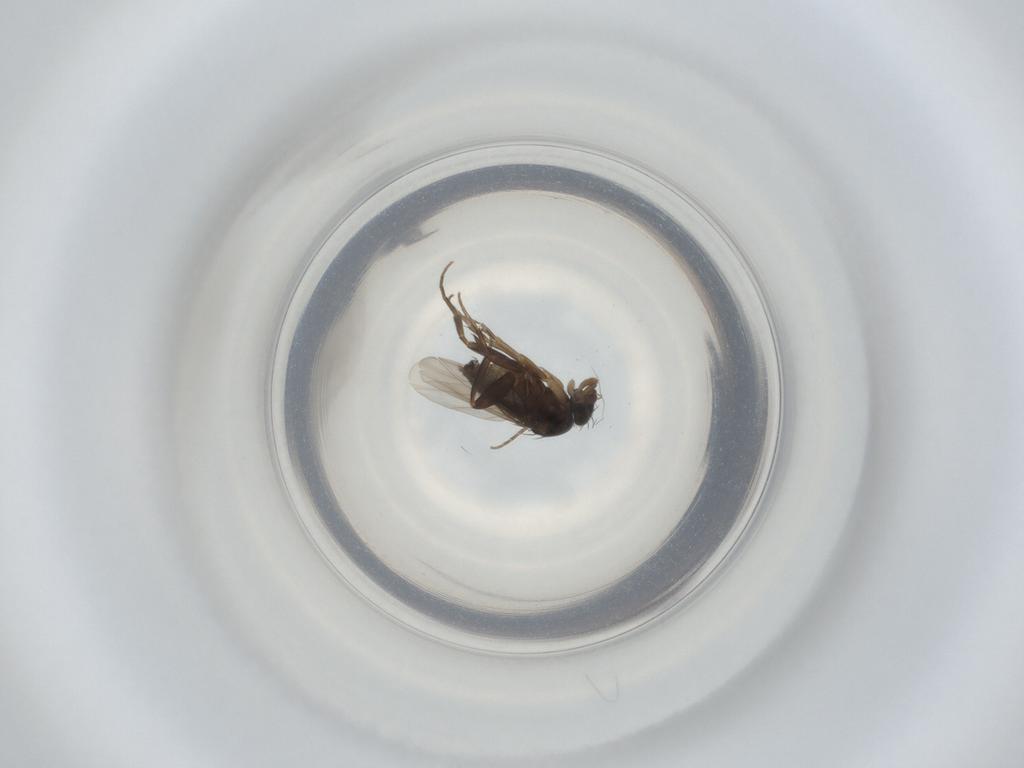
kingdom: Animalia
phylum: Arthropoda
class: Insecta
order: Diptera
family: Phoridae
